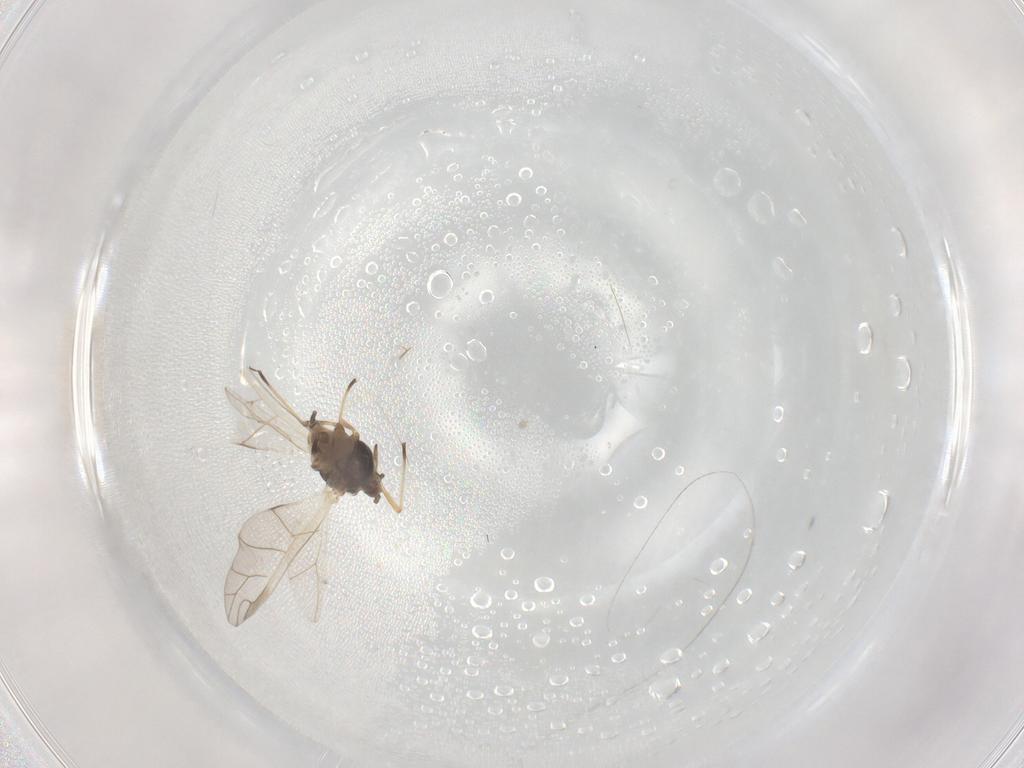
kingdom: Animalia
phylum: Arthropoda
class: Insecta
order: Hemiptera
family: Aphididae
